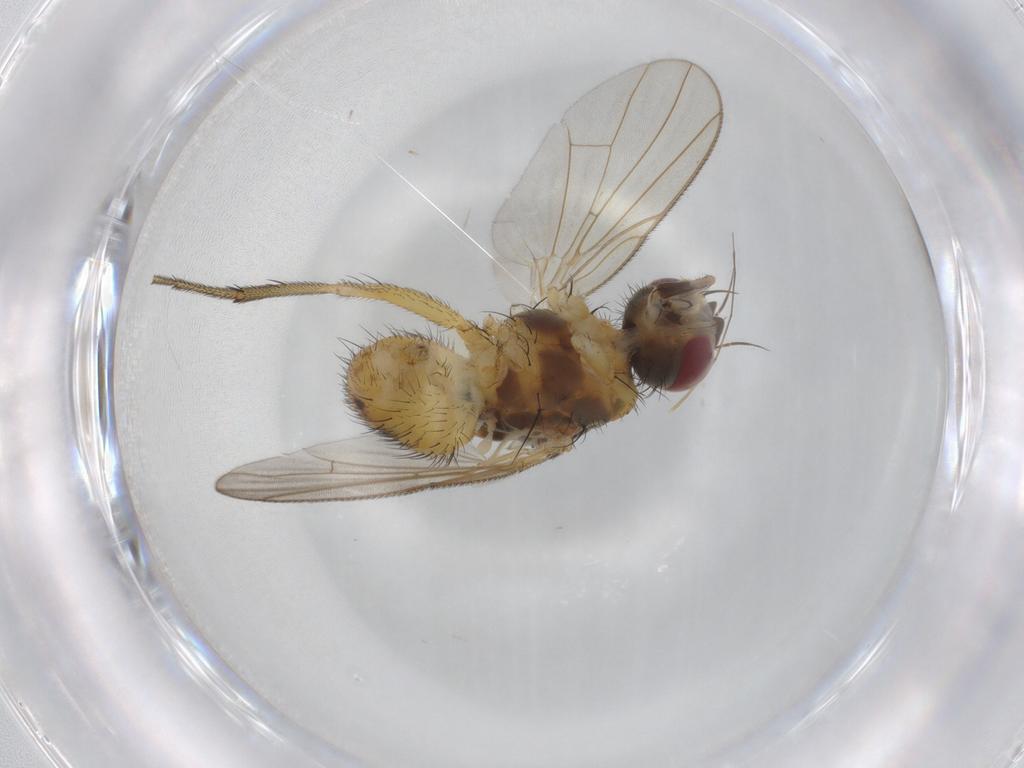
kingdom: Animalia
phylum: Arthropoda
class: Insecta
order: Diptera
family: Muscidae
